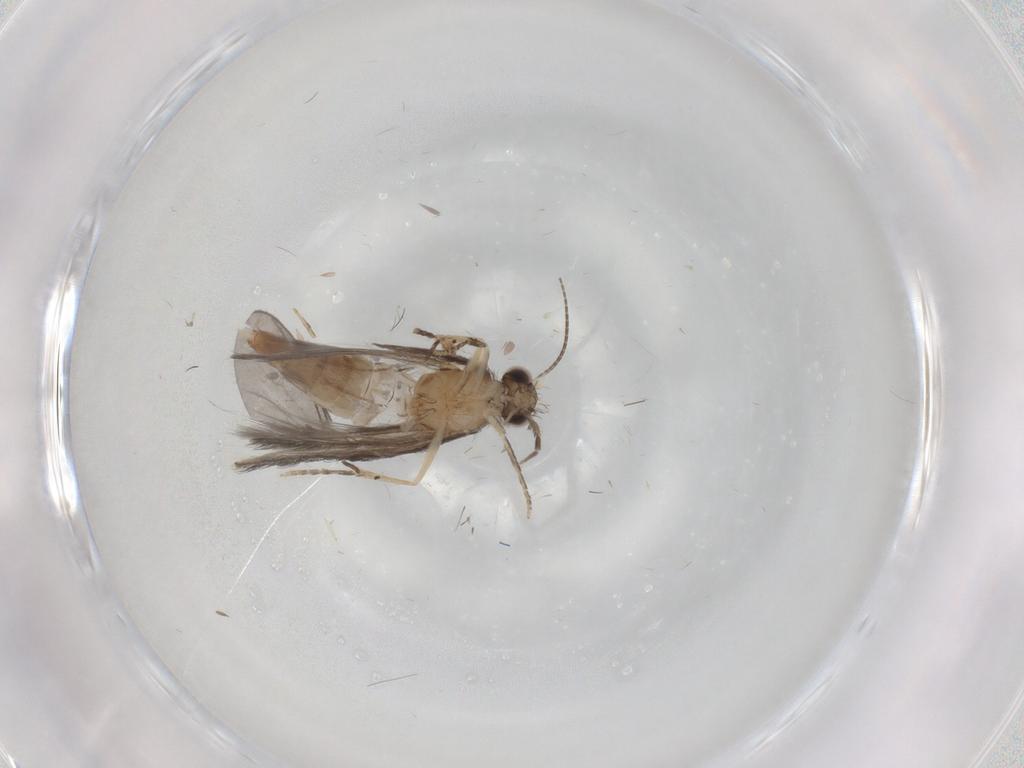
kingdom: Animalia
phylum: Arthropoda
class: Insecta
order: Trichoptera
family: Hydroptilidae
